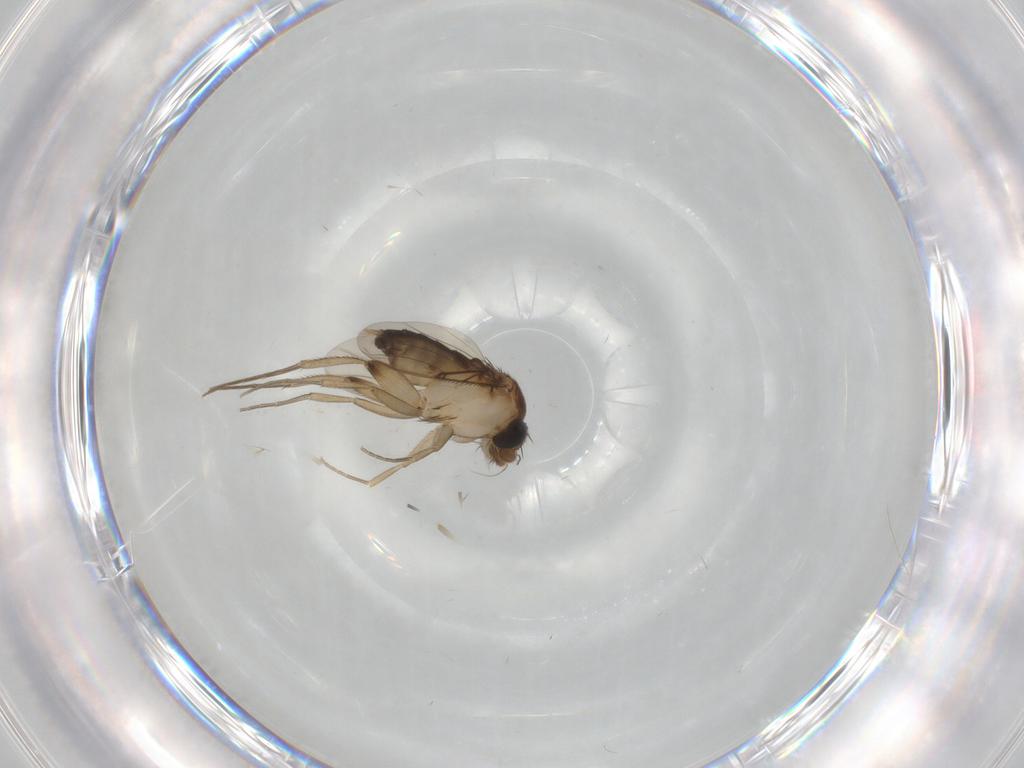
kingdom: Animalia
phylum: Arthropoda
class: Insecta
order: Diptera
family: Phoridae
